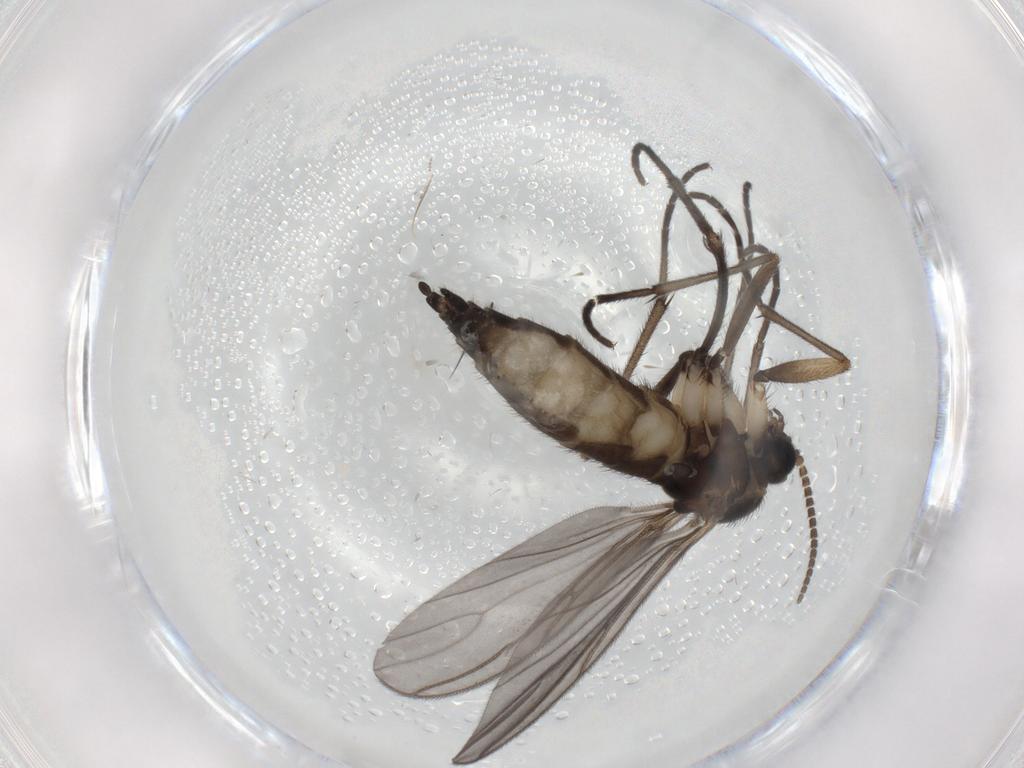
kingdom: Animalia
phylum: Arthropoda
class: Insecta
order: Diptera
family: Sciaridae
